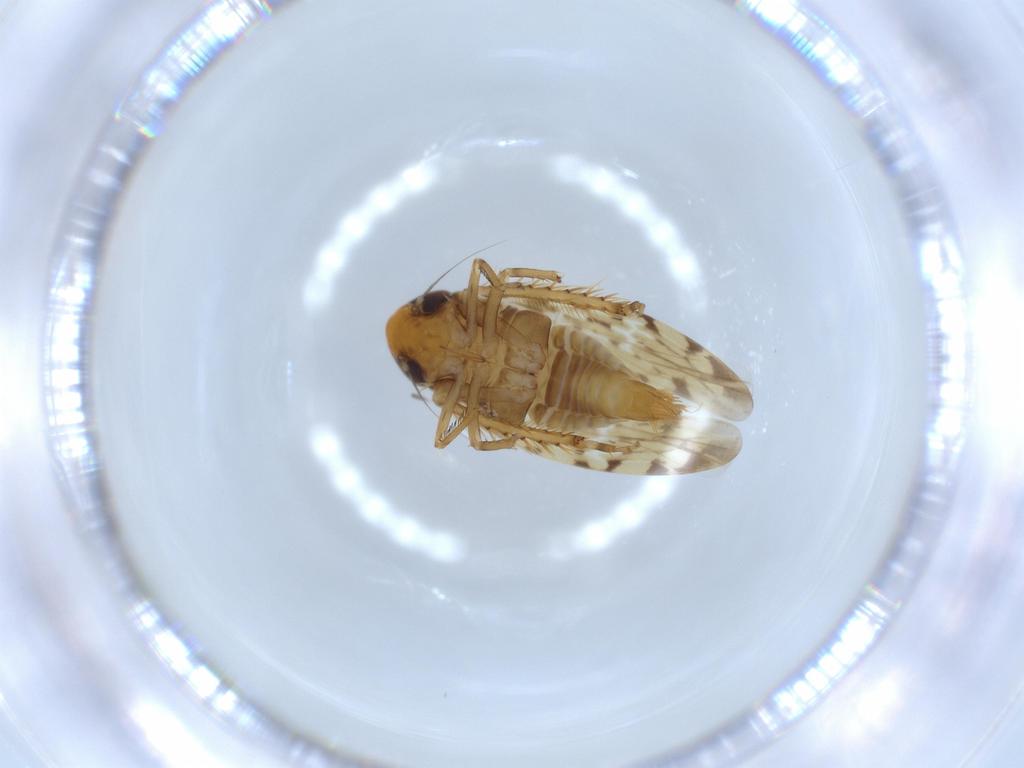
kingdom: Animalia
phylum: Arthropoda
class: Insecta
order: Hemiptera
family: Cicadellidae
